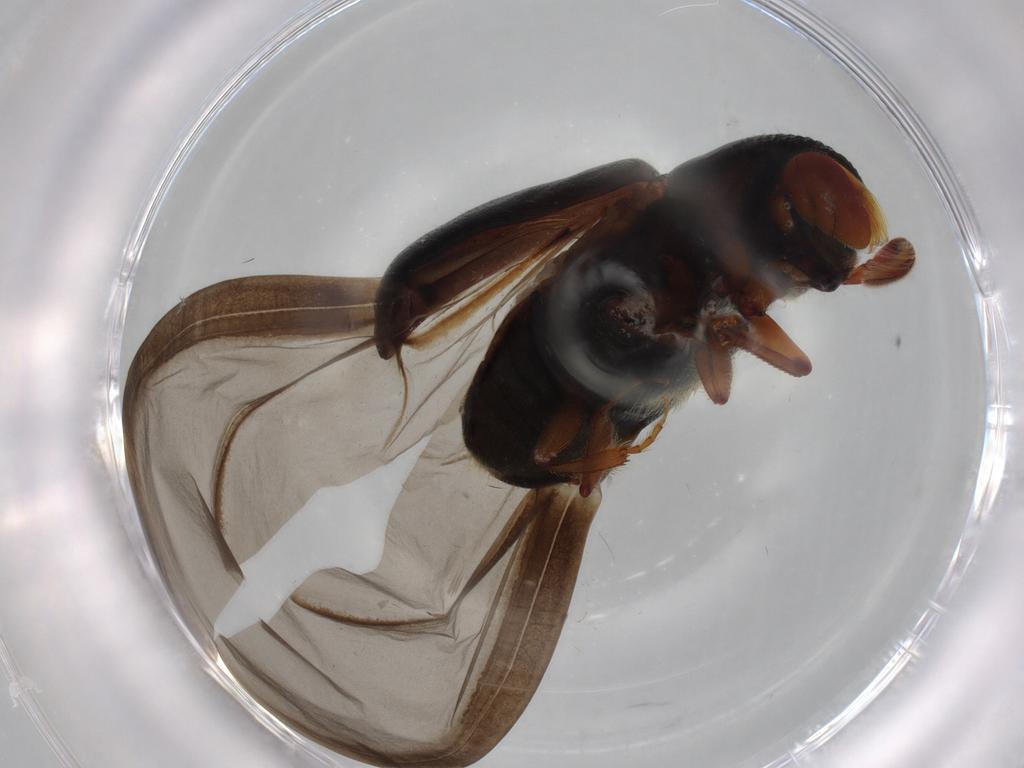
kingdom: Animalia
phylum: Arthropoda
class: Insecta
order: Coleoptera
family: Curculionidae
